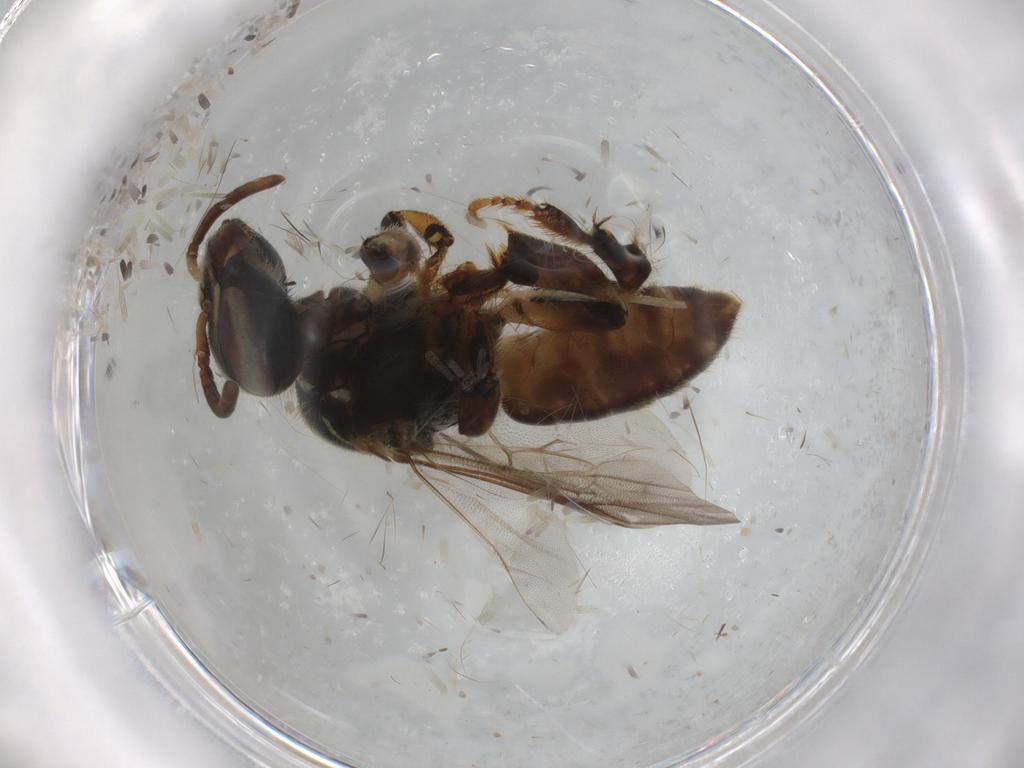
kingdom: Animalia
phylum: Arthropoda
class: Insecta
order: Hymenoptera
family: Apidae
